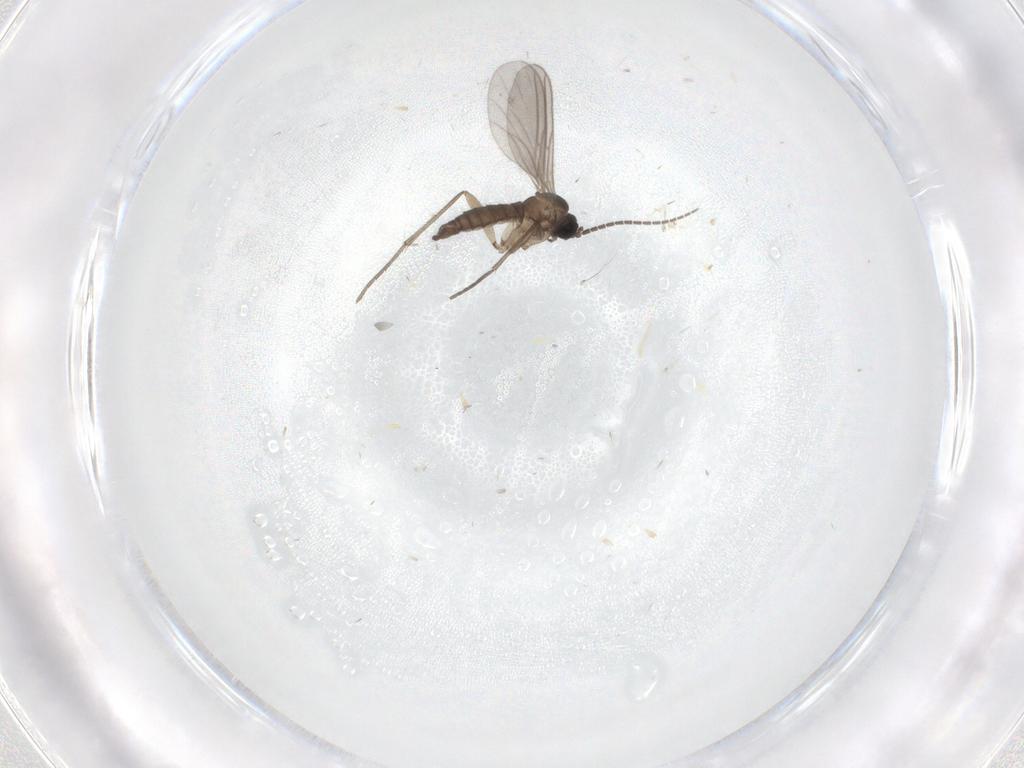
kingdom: Animalia
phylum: Arthropoda
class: Insecta
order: Diptera
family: Sciaridae
